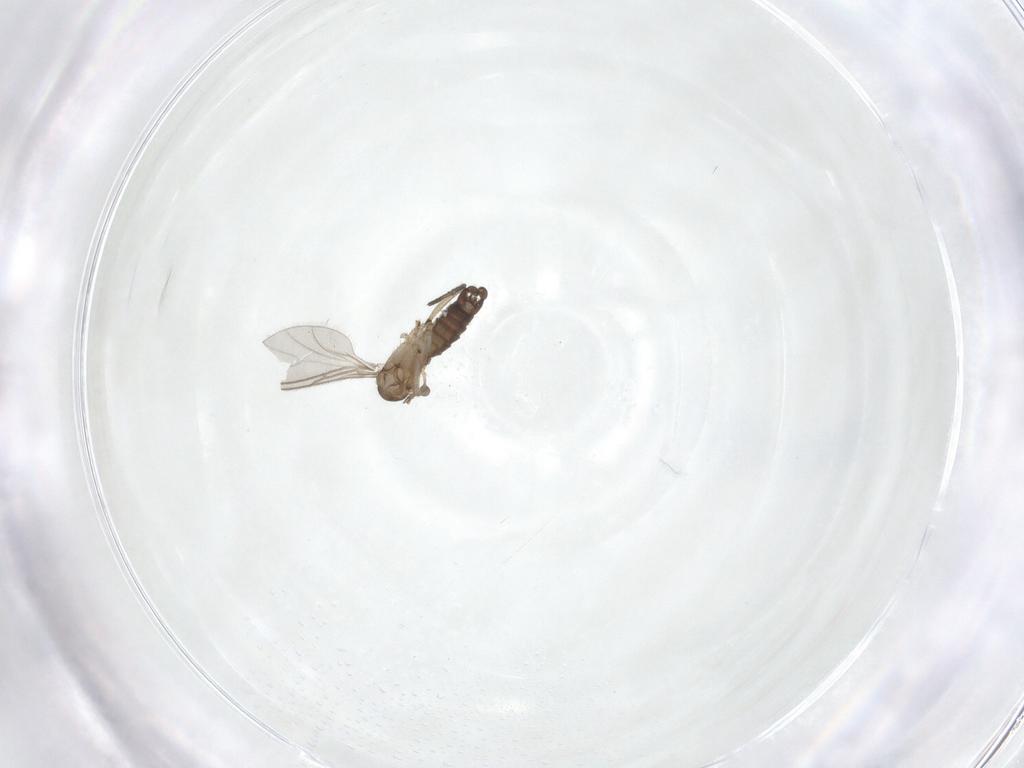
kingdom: Animalia
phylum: Arthropoda
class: Insecta
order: Diptera
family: Sciaridae
